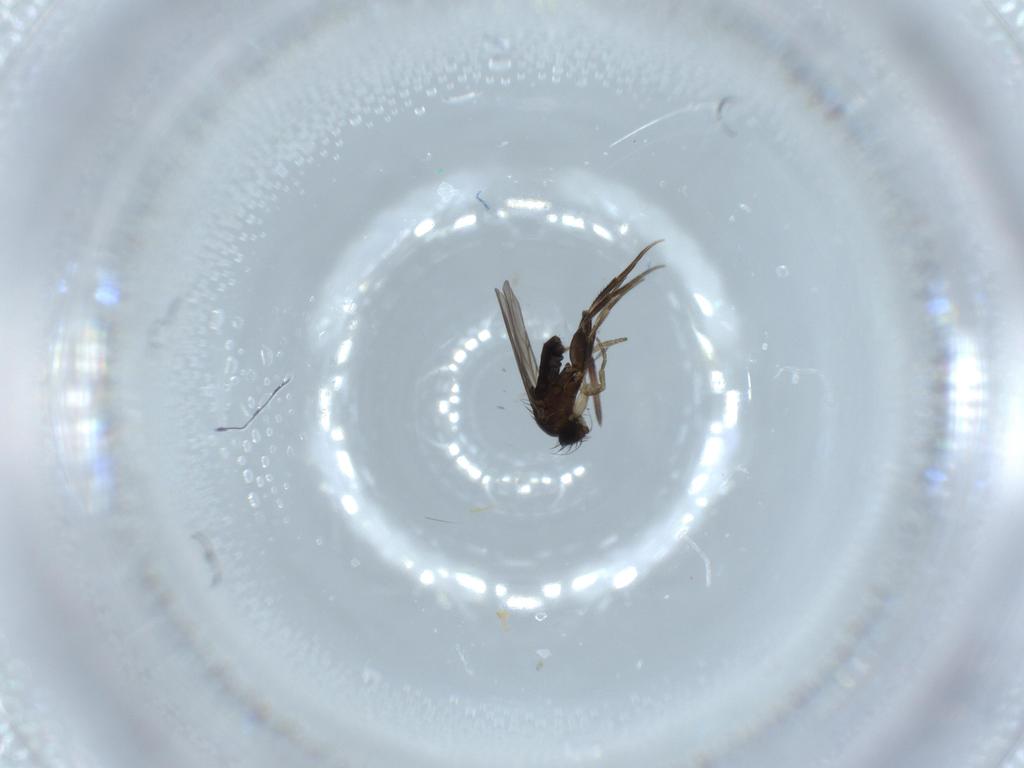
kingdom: Animalia
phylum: Arthropoda
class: Insecta
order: Diptera
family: Phoridae
